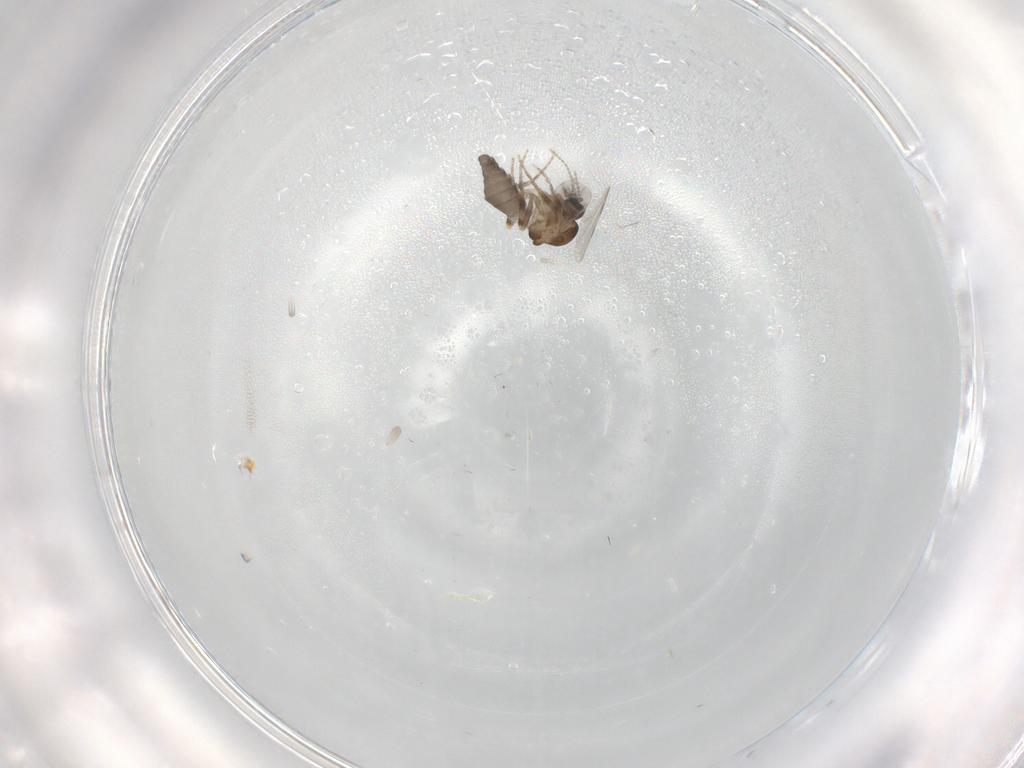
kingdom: Animalia
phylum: Arthropoda
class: Insecta
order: Diptera
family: Ceratopogonidae
